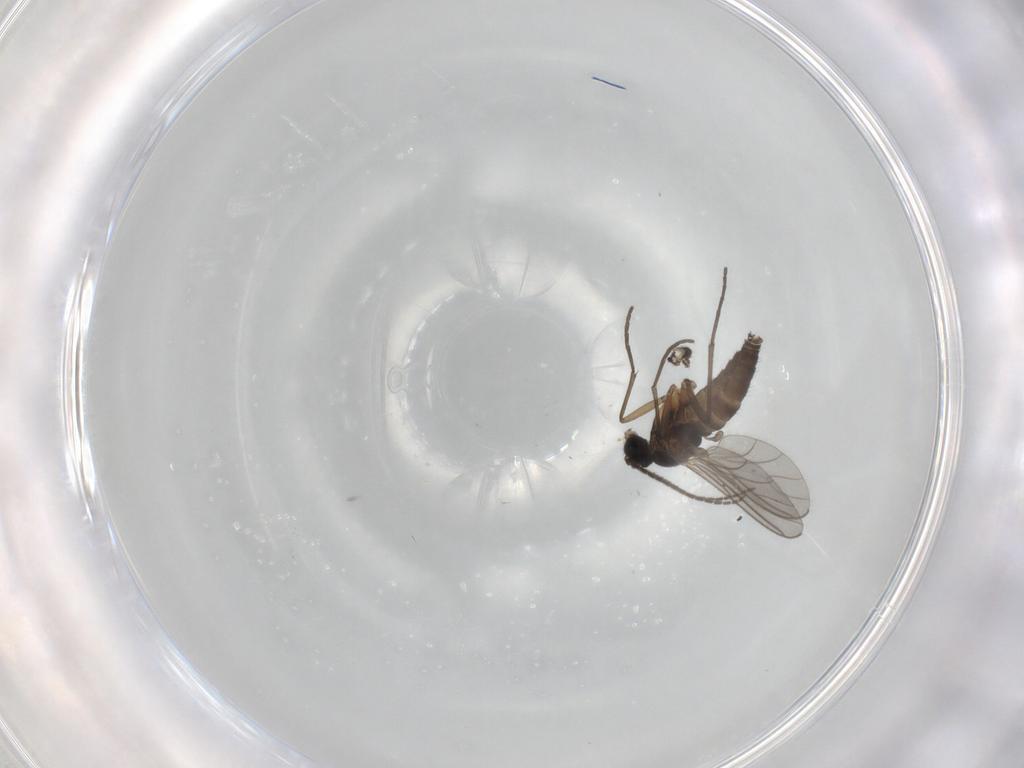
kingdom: Animalia
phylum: Arthropoda
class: Insecta
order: Diptera
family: Sciaridae
